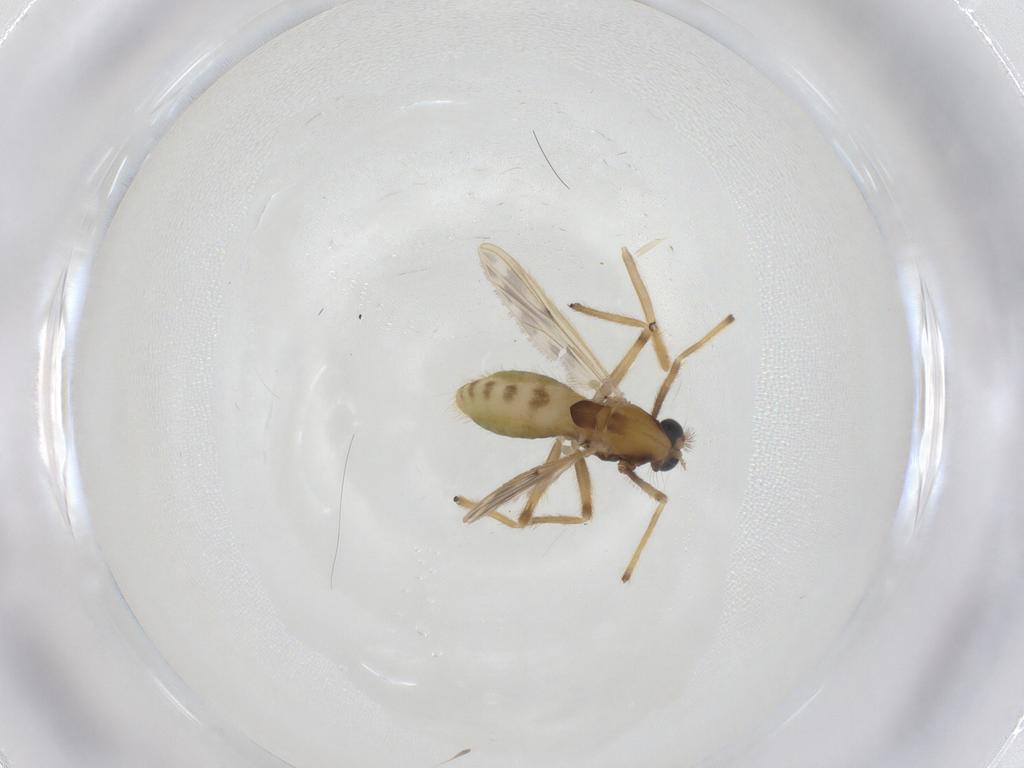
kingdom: Animalia
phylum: Arthropoda
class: Insecta
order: Diptera
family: Chironomidae
